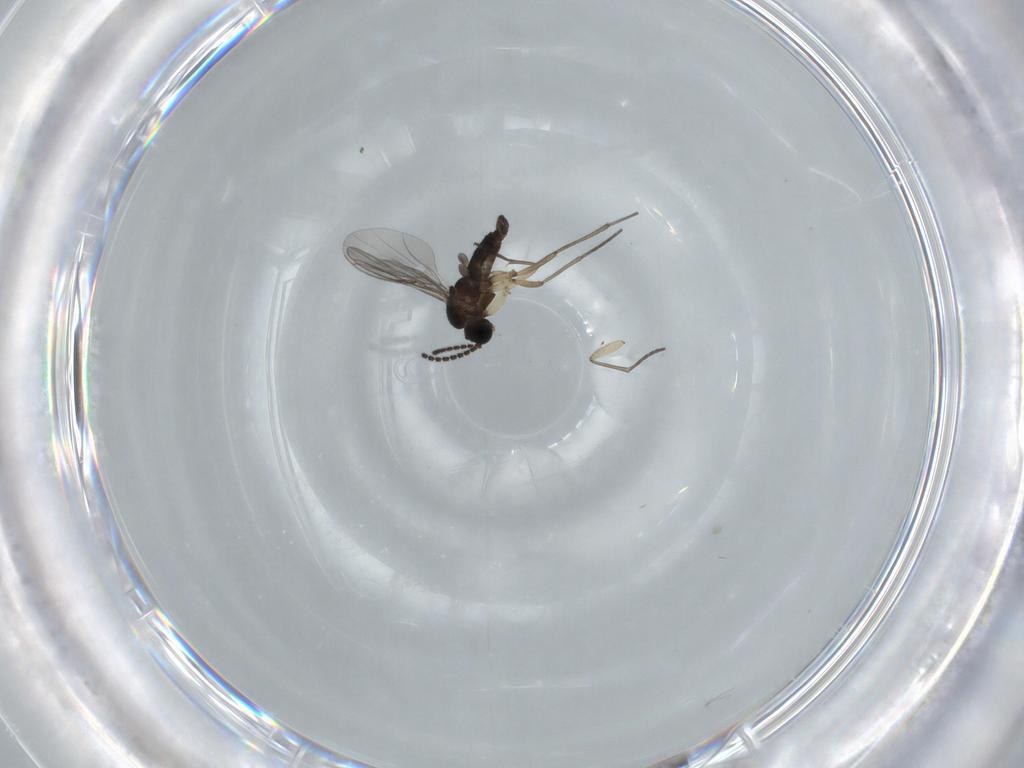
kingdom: Animalia
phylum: Arthropoda
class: Insecta
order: Diptera
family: Sciaridae
